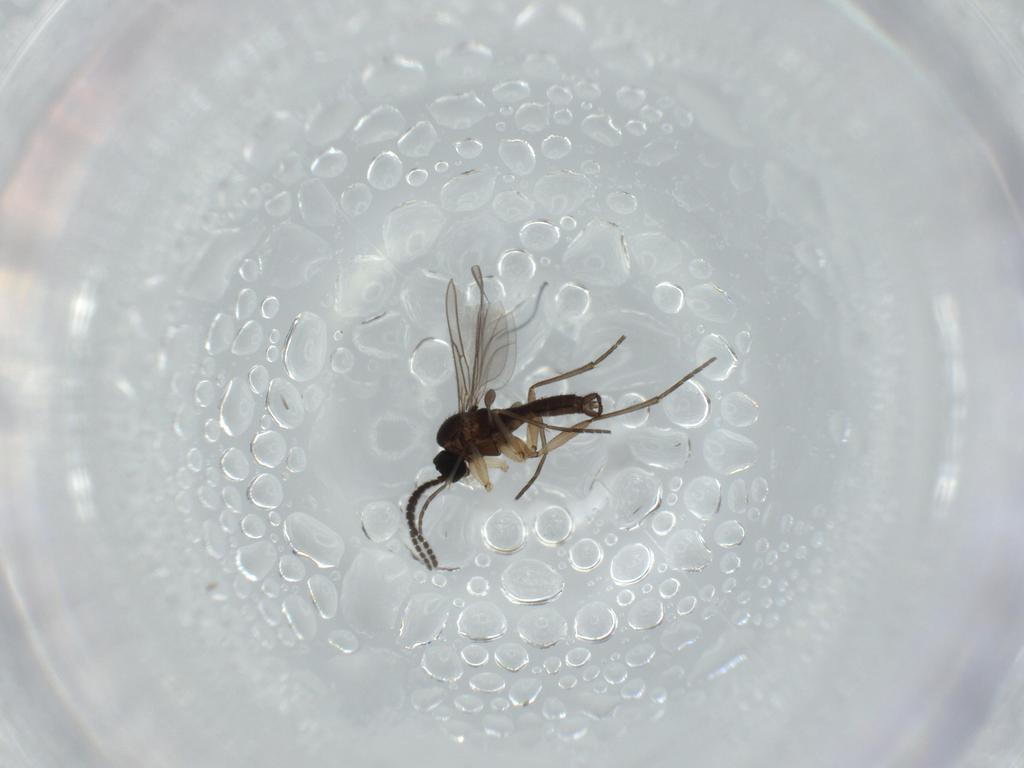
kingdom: Animalia
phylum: Arthropoda
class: Insecta
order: Diptera
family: Sciaridae
